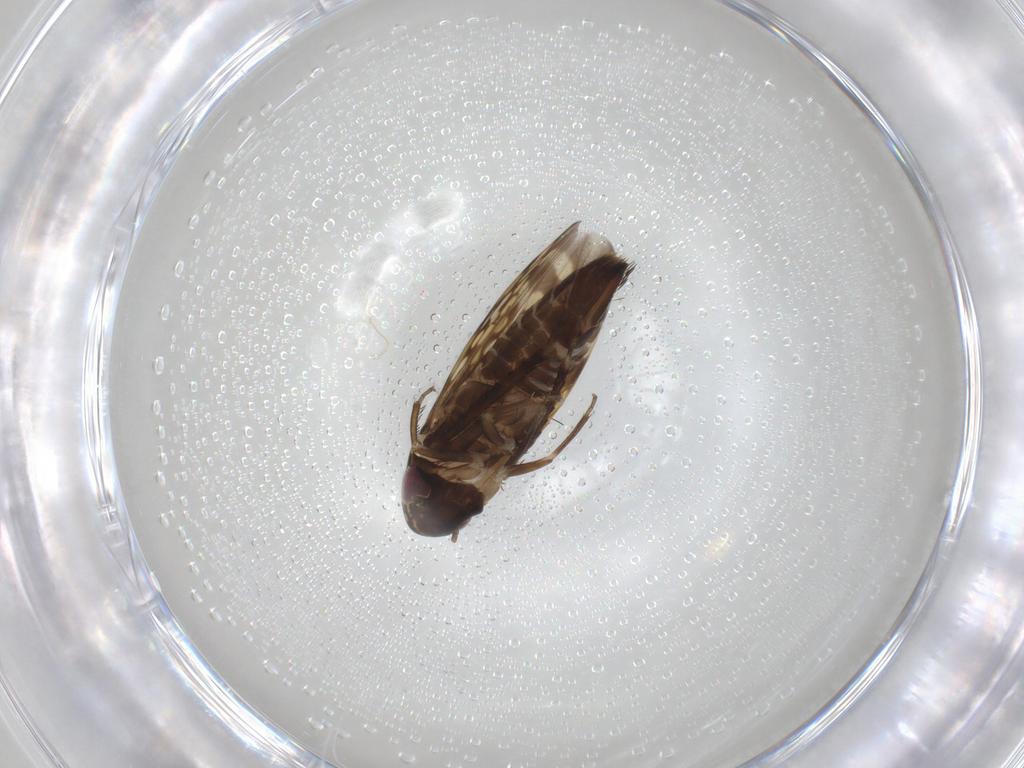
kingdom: Animalia
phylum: Arthropoda
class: Insecta
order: Hemiptera
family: Cicadellidae
